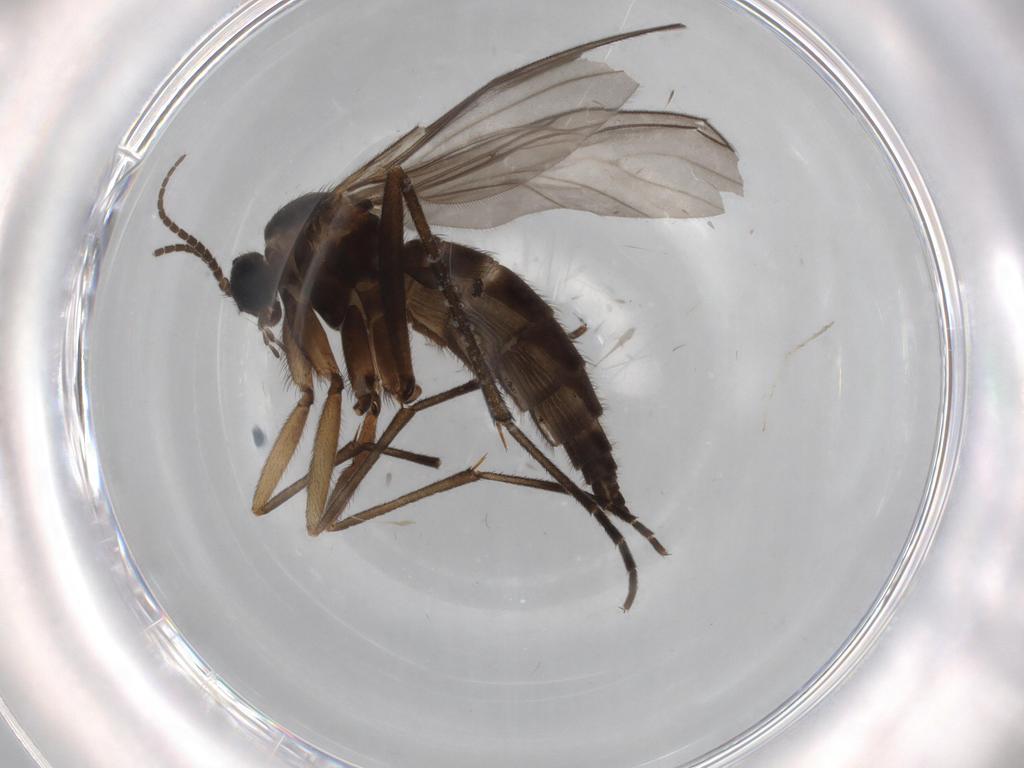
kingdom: Animalia
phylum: Arthropoda
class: Insecta
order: Diptera
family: Sciaridae
